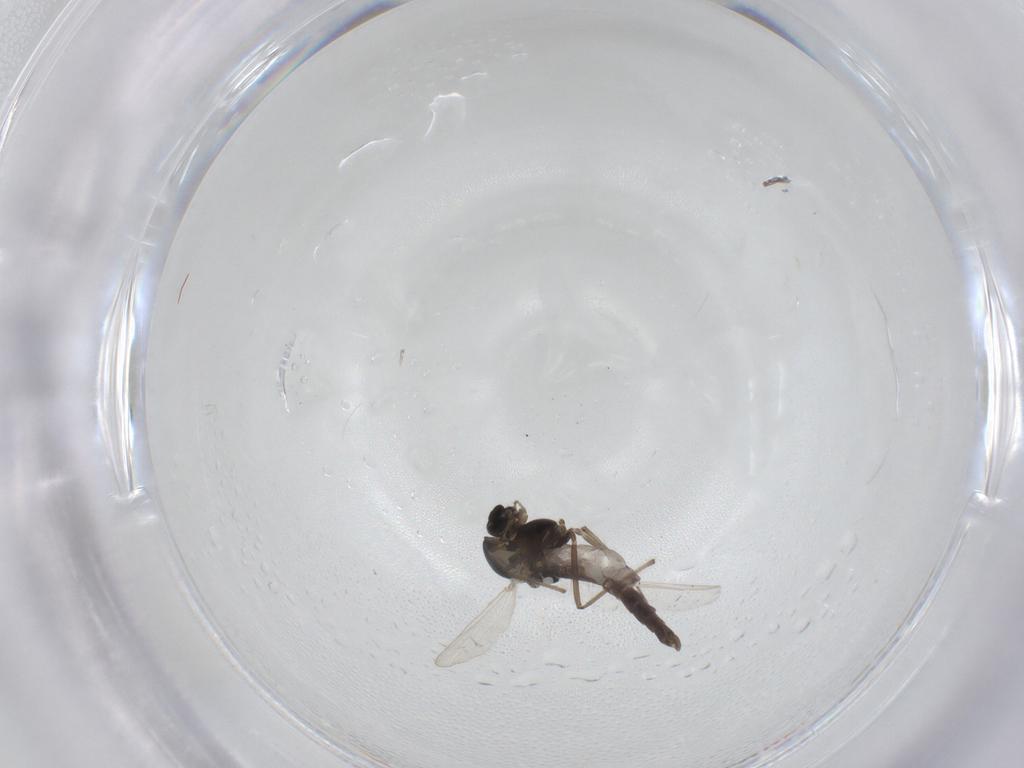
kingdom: Animalia
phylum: Arthropoda
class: Insecta
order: Diptera
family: Chironomidae
